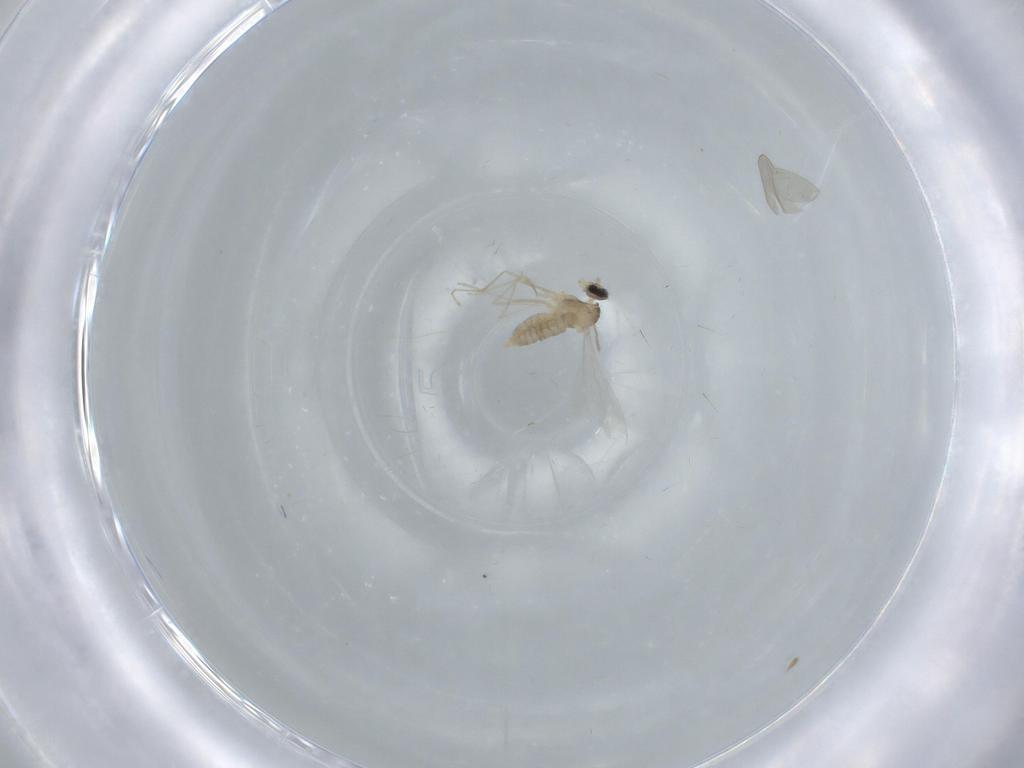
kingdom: Animalia
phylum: Arthropoda
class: Insecta
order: Diptera
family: Cecidomyiidae
